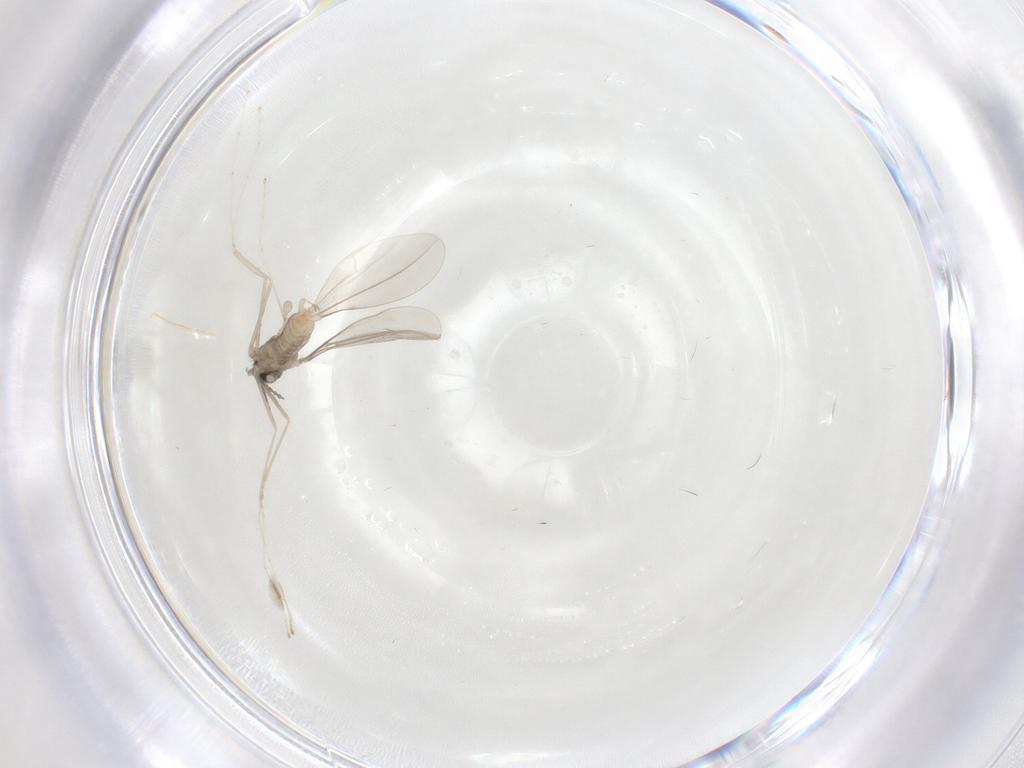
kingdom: Animalia
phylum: Arthropoda
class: Insecta
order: Diptera
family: Cecidomyiidae
